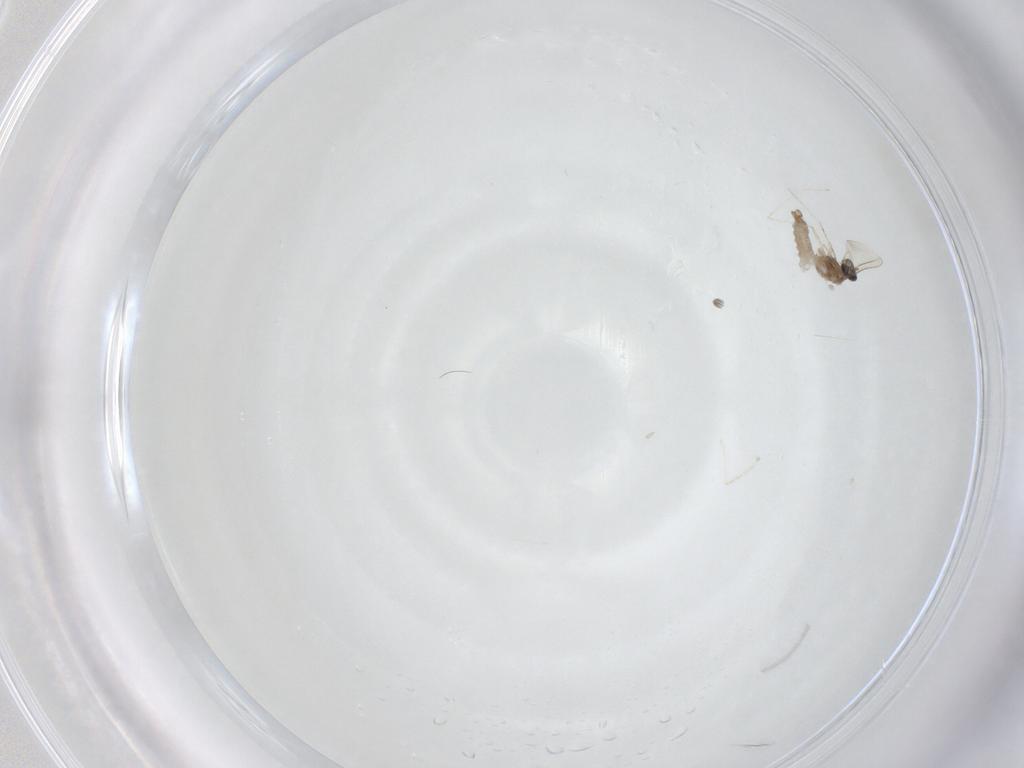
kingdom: Animalia
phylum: Arthropoda
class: Insecta
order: Diptera
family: Cecidomyiidae
